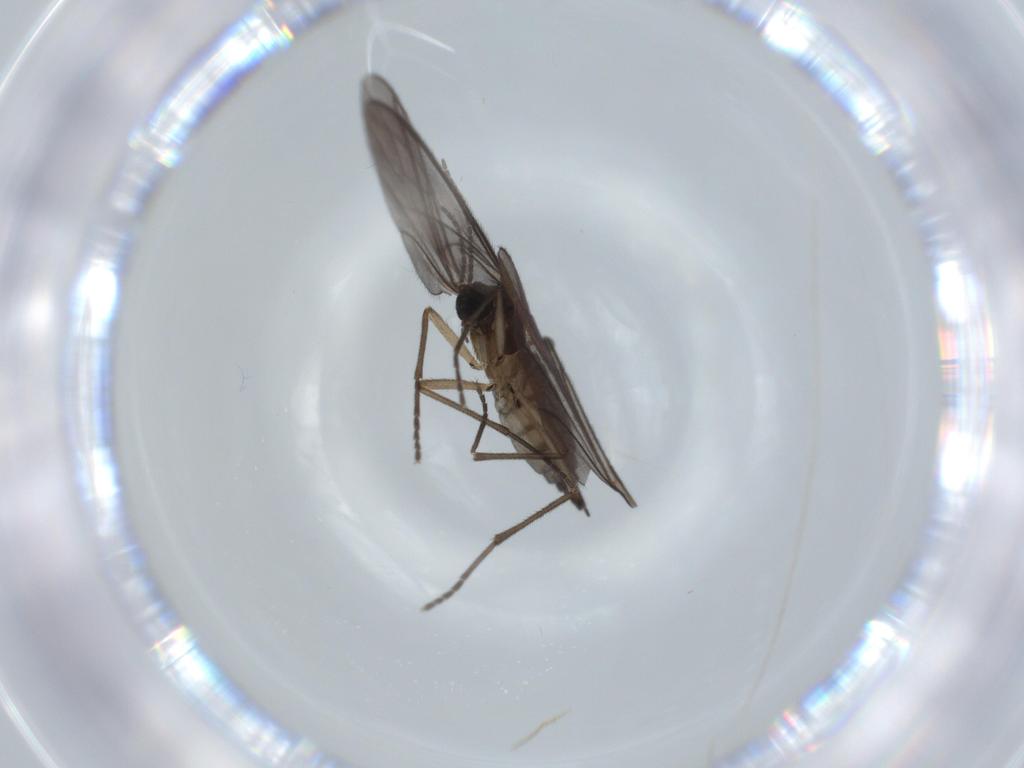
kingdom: Animalia
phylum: Arthropoda
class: Insecta
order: Diptera
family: Sciaridae
